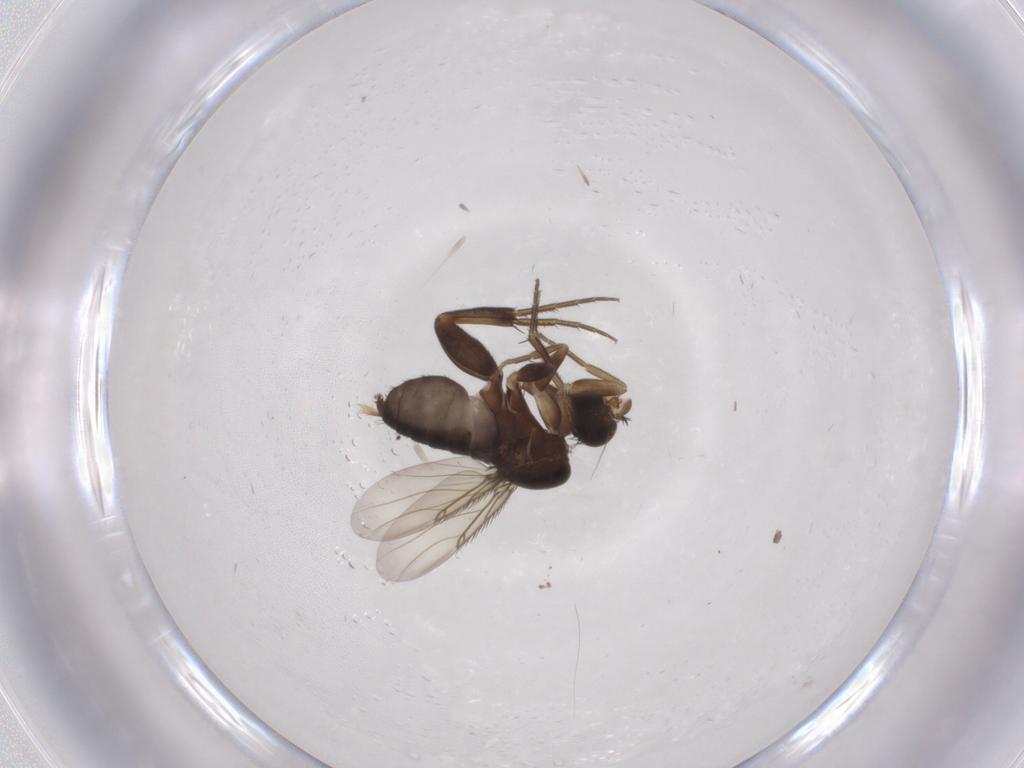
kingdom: Animalia
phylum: Arthropoda
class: Insecta
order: Diptera
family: Phoridae
